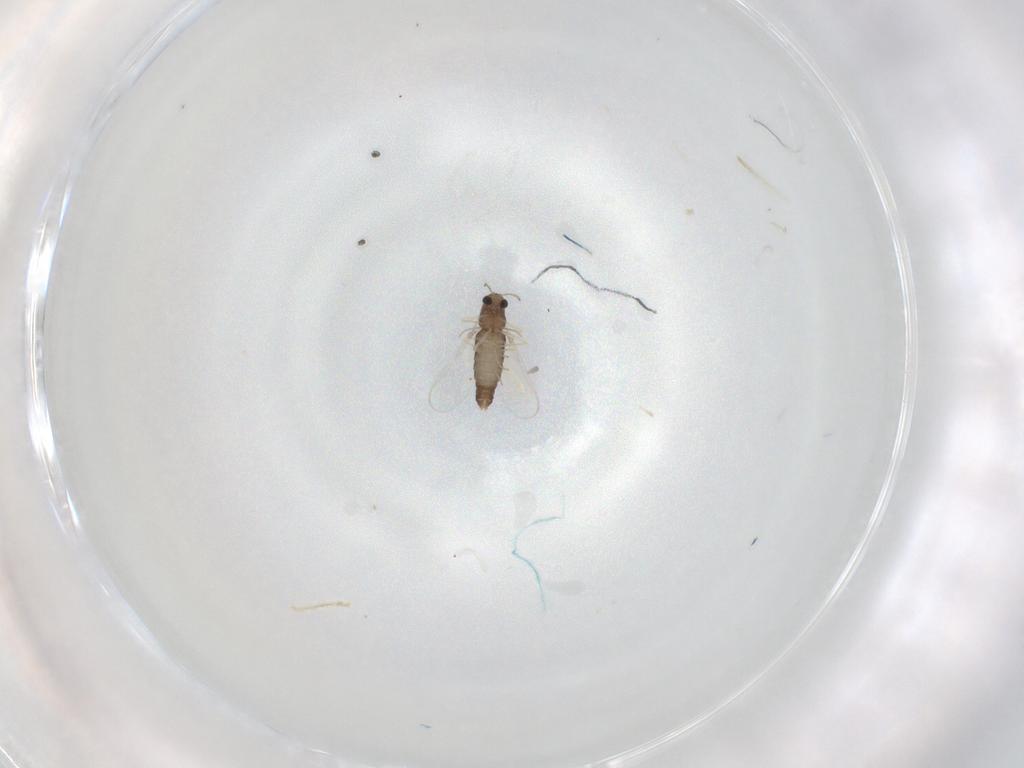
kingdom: Animalia
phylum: Arthropoda
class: Insecta
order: Diptera
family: Chironomidae
